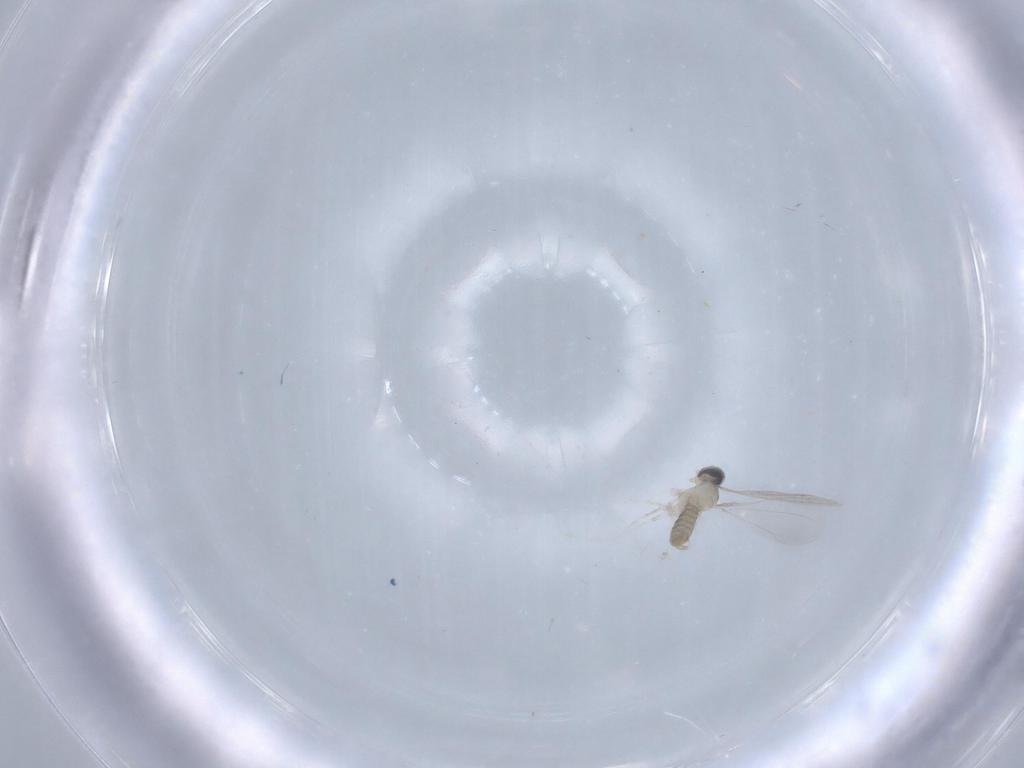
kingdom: Animalia
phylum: Arthropoda
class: Insecta
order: Diptera
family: Cecidomyiidae
